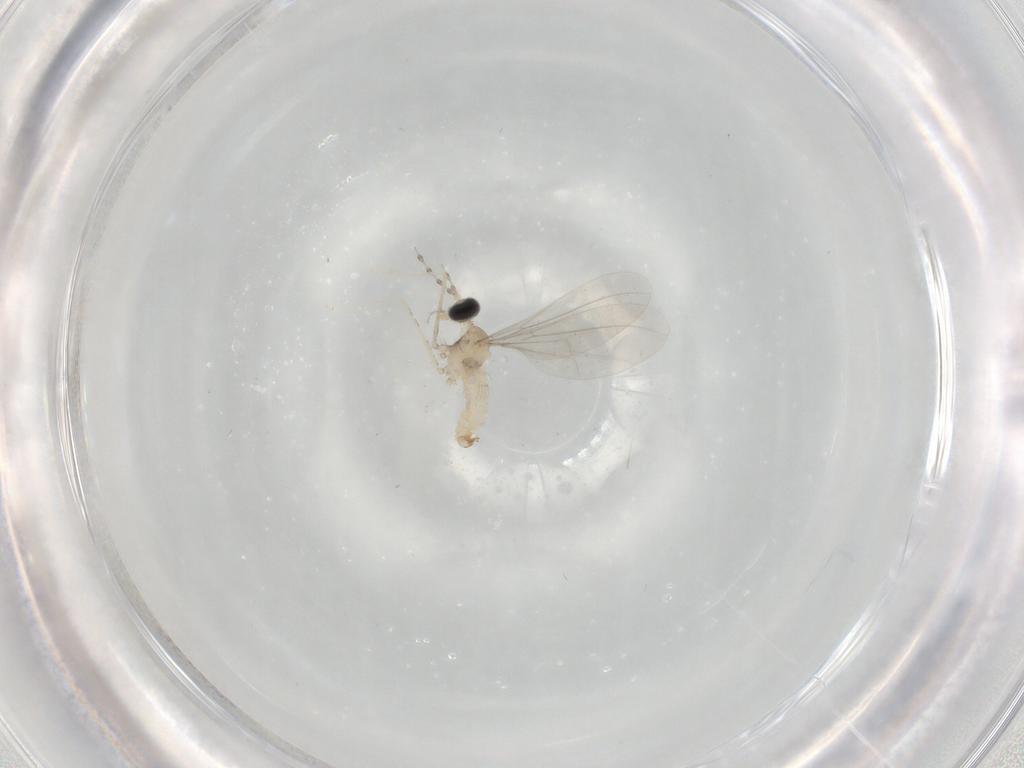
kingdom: Animalia
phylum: Arthropoda
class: Insecta
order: Diptera
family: Cecidomyiidae
